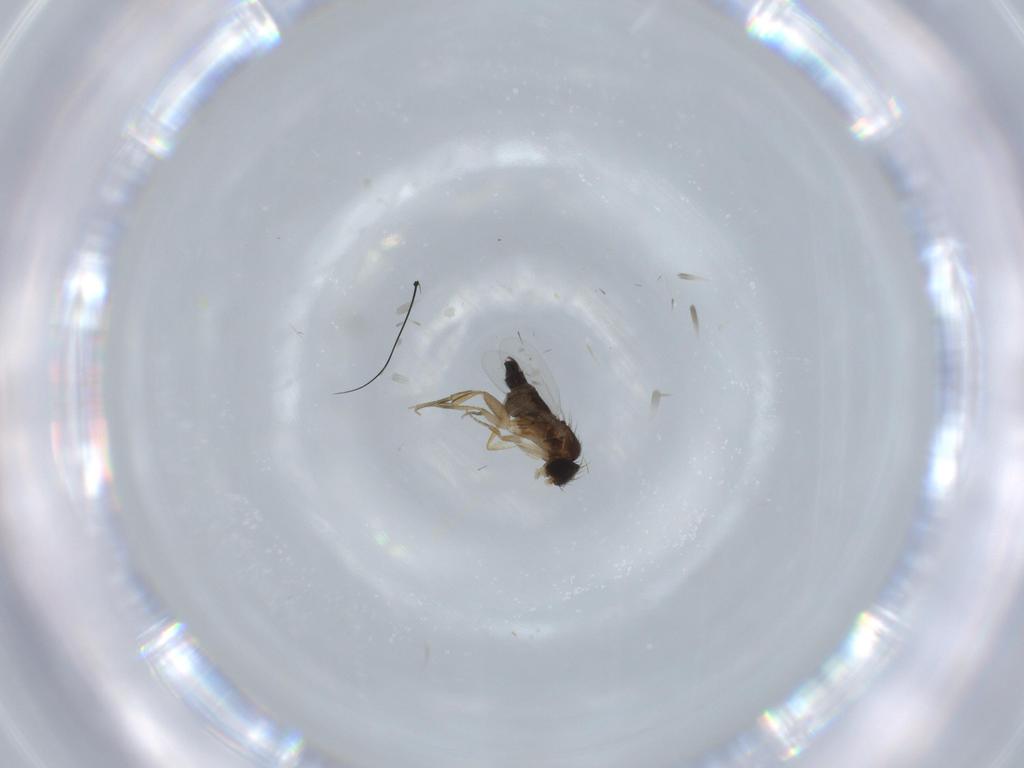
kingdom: Animalia
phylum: Arthropoda
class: Insecta
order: Diptera
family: Phoridae
